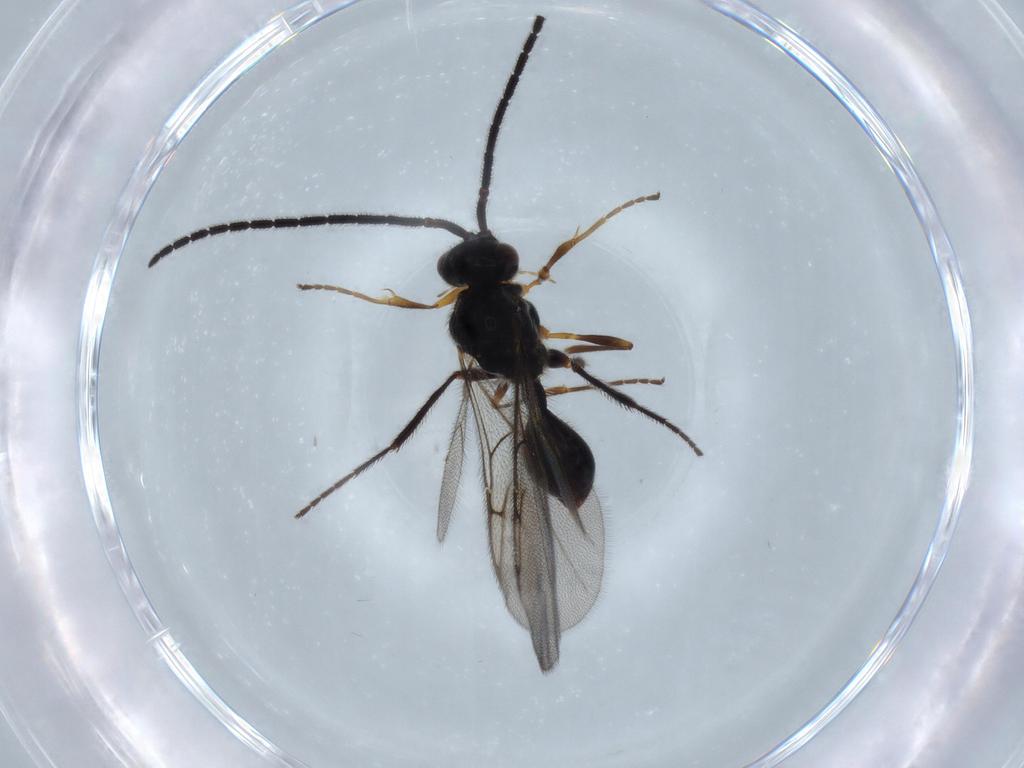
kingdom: Animalia
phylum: Arthropoda
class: Insecta
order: Hymenoptera
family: Diapriidae
